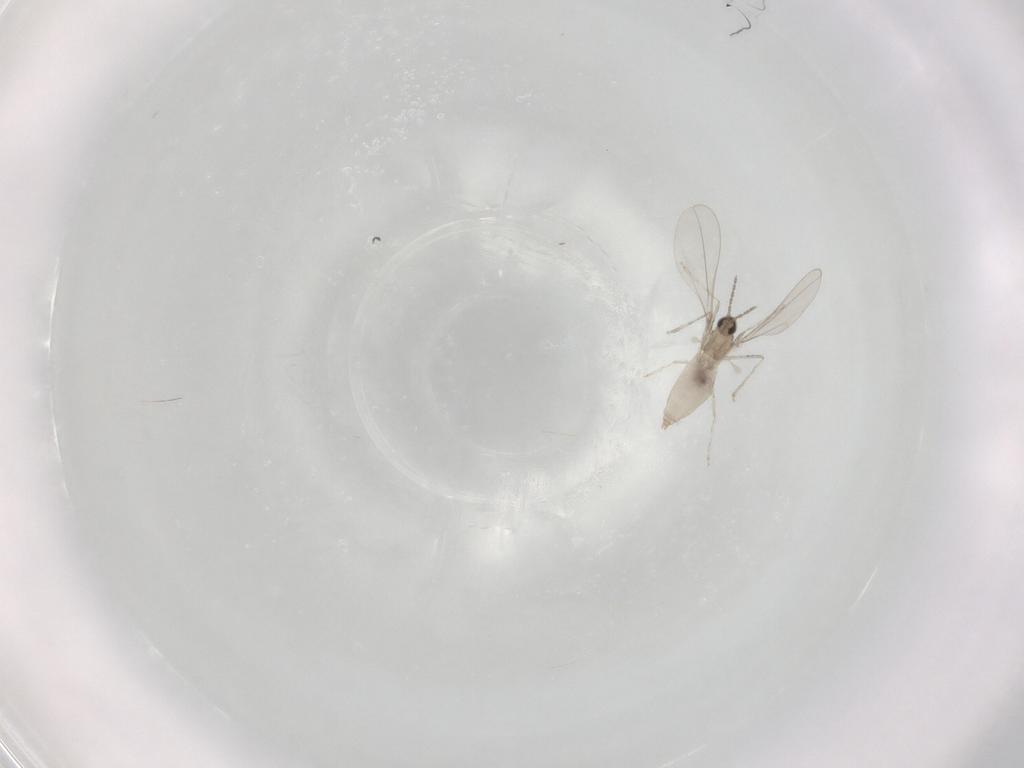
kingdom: Animalia
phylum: Arthropoda
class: Insecta
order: Diptera
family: Cecidomyiidae
